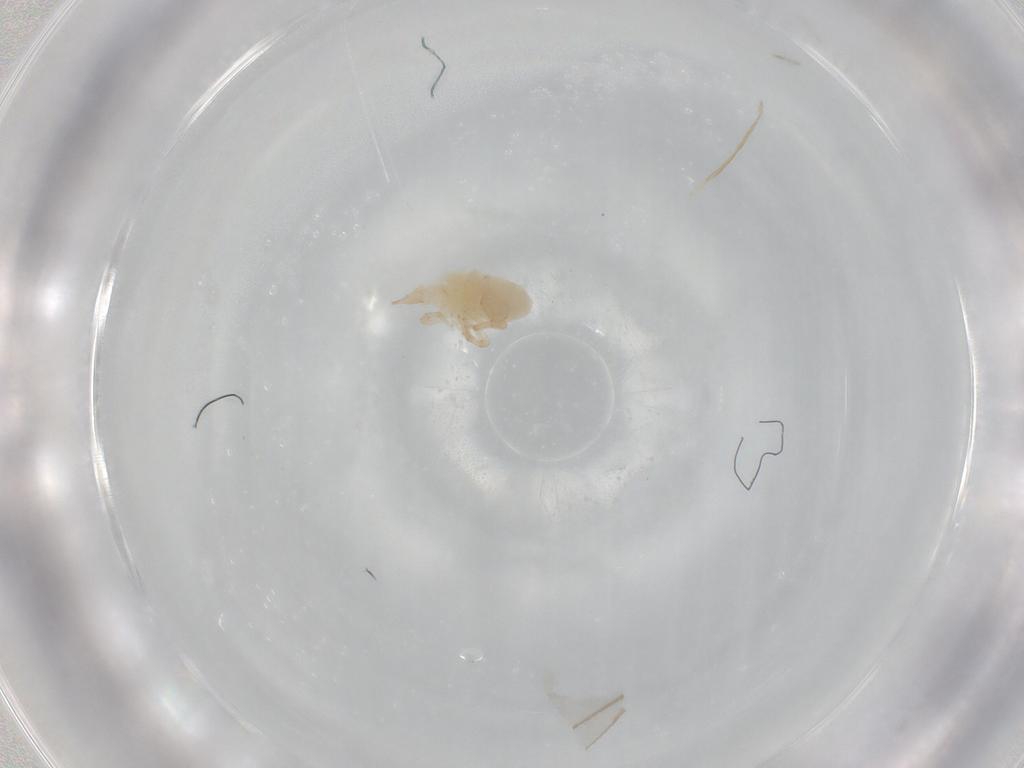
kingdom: Animalia
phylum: Arthropoda
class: Arachnida
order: Trombidiformes
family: Bdellidae
